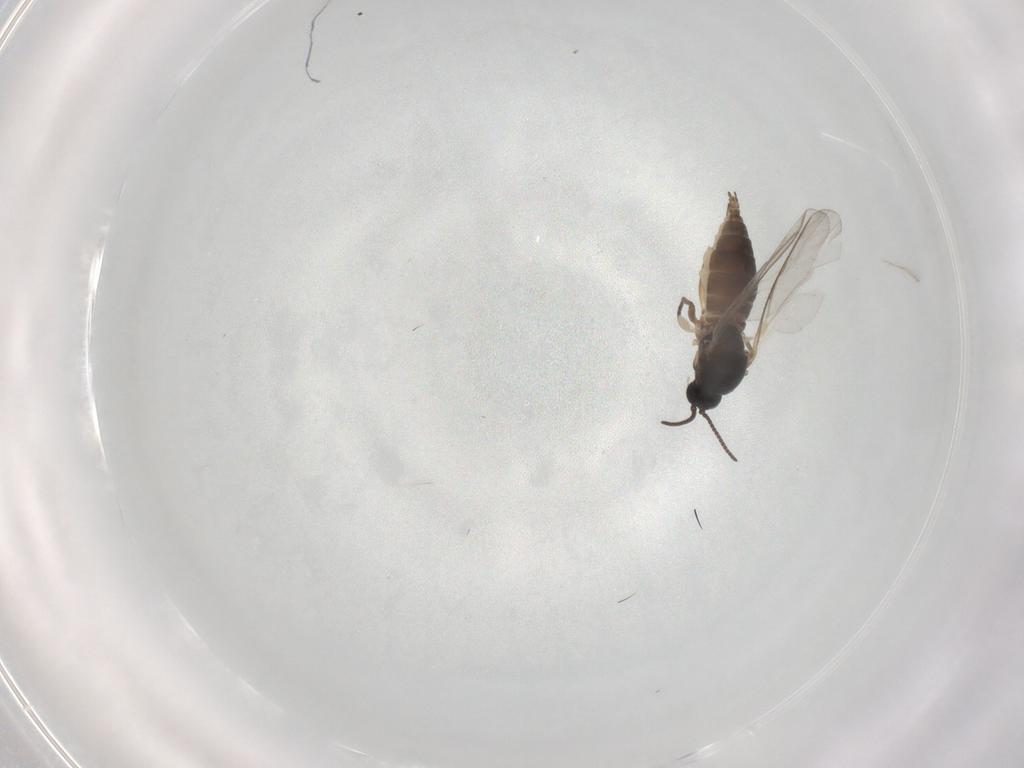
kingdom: Animalia
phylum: Arthropoda
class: Insecta
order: Diptera
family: Sciaridae
